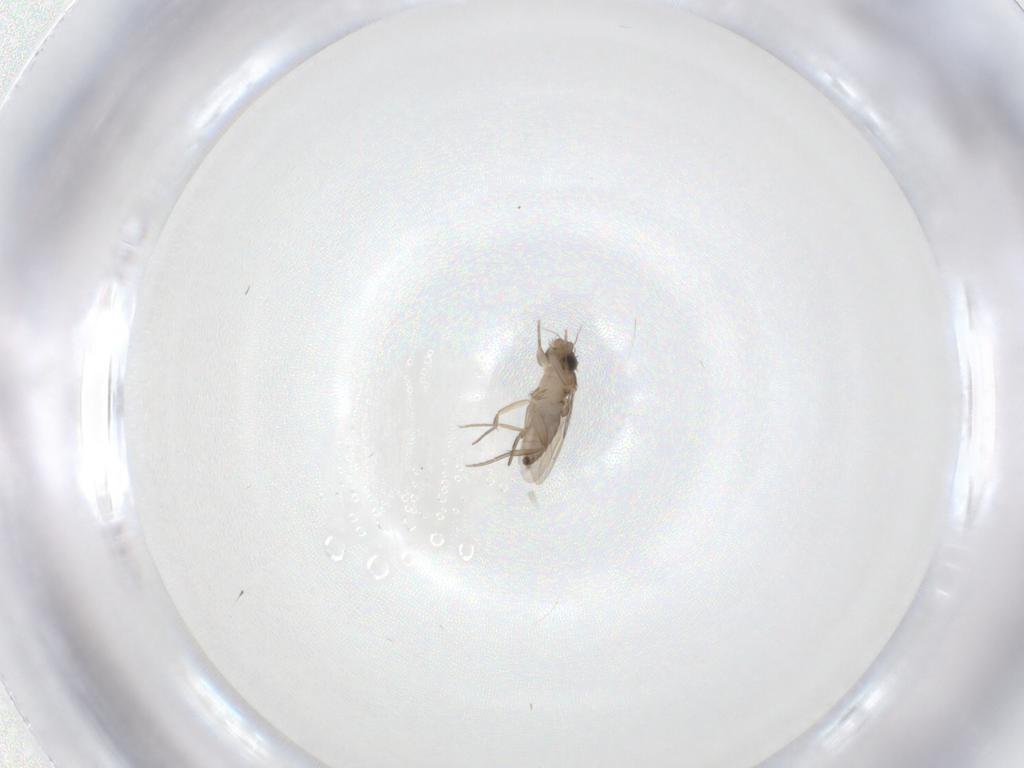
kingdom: Animalia
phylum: Arthropoda
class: Insecta
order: Diptera
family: Phoridae
